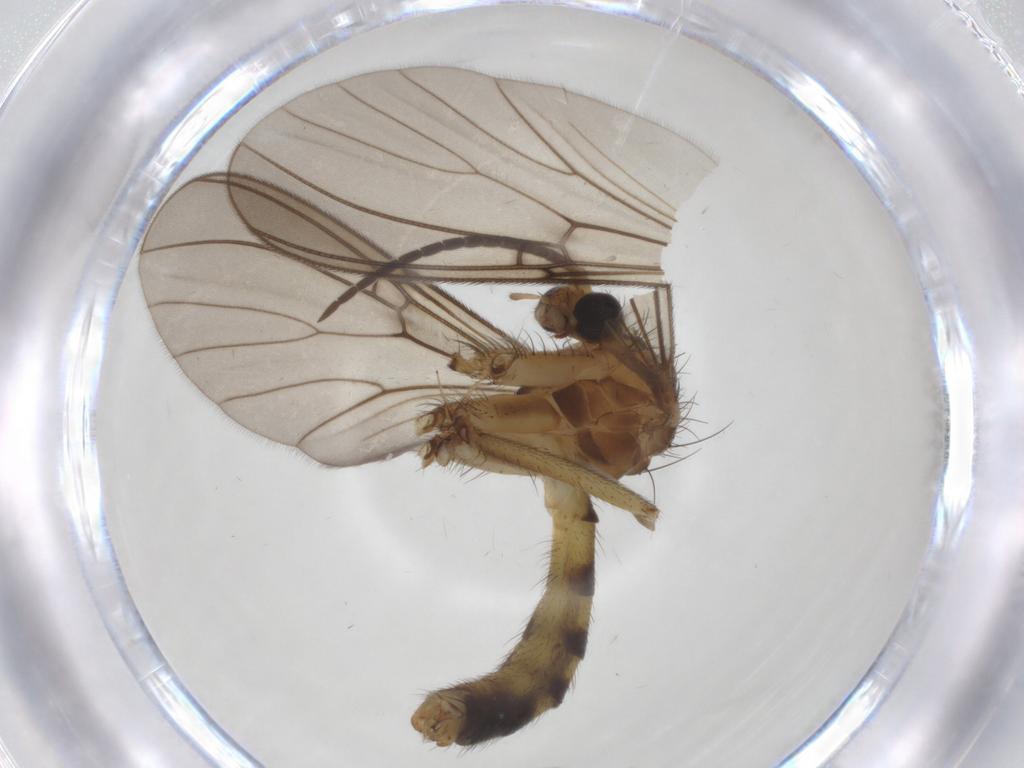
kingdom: Animalia
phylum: Arthropoda
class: Insecta
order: Diptera
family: Mycetophilidae
